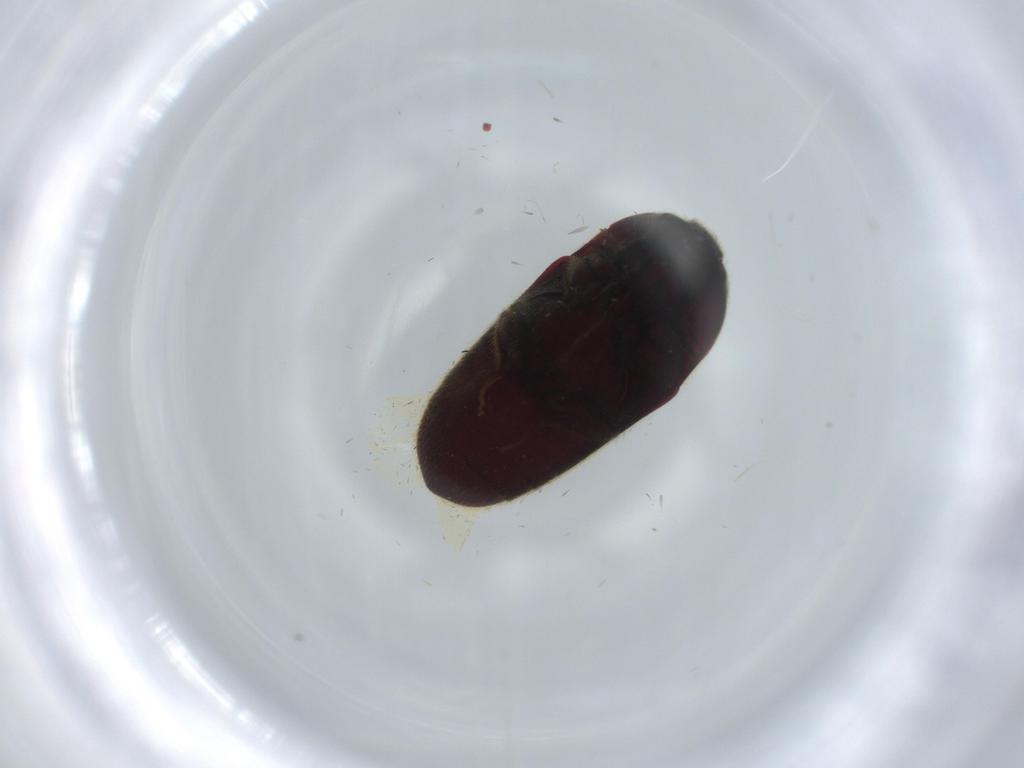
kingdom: Animalia
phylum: Arthropoda
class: Insecta
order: Coleoptera
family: Throscidae
